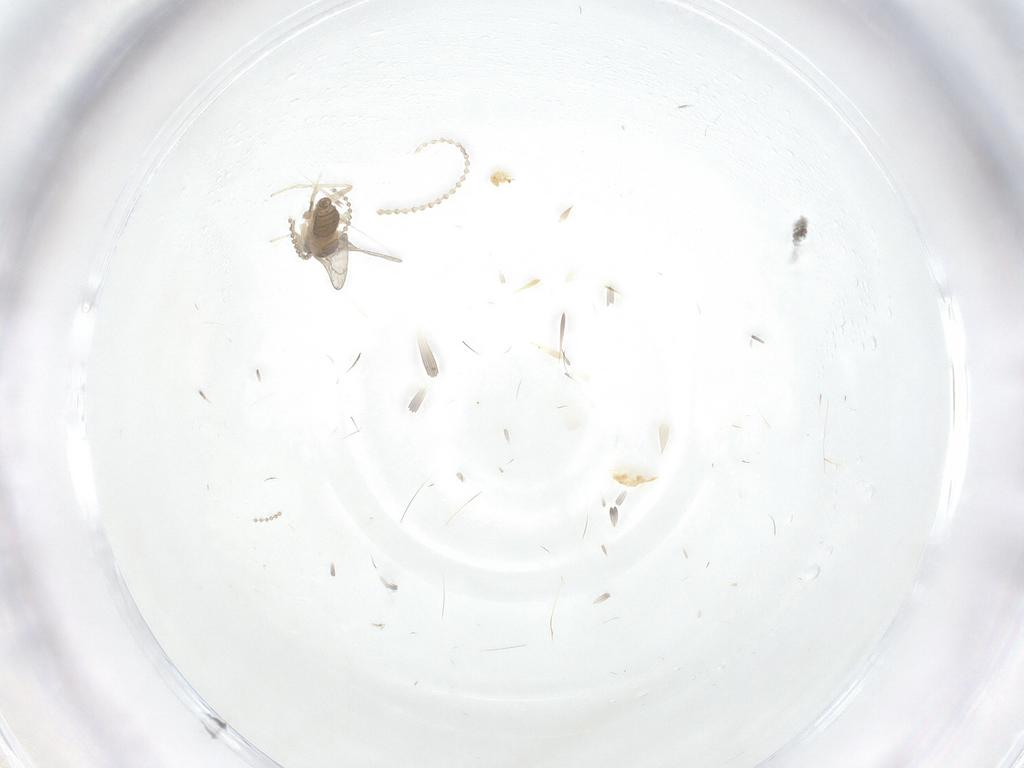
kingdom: Animalia
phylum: Arthropoda
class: Insecta
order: Diptera
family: Cecidomyiidae
